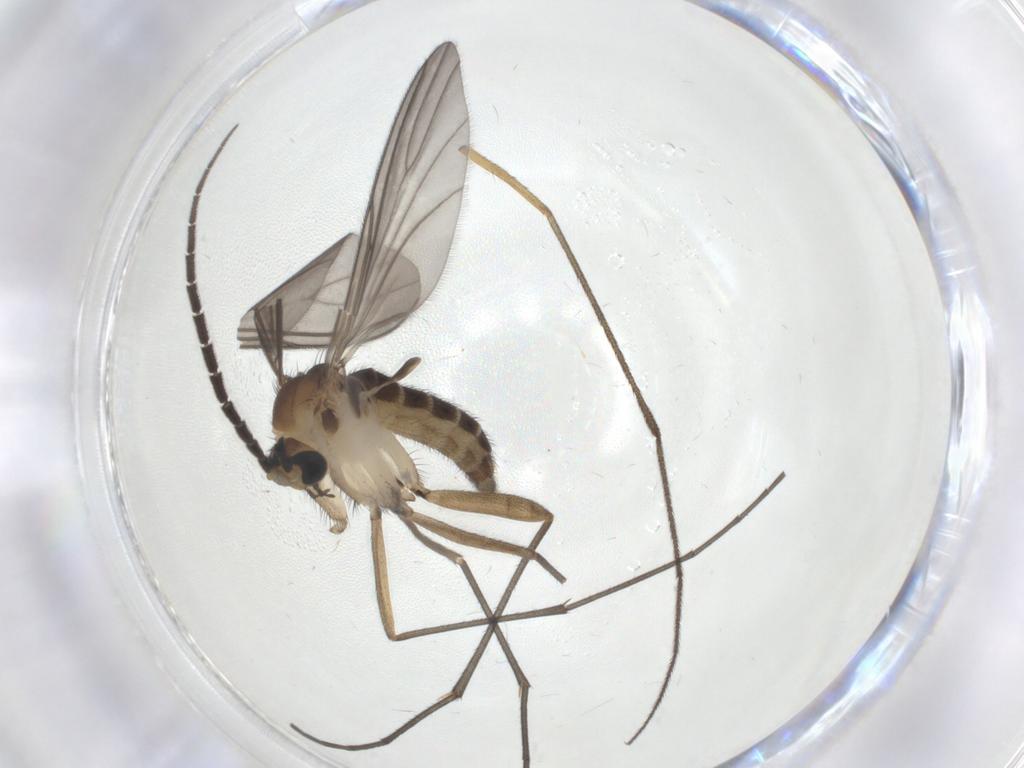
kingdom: Animalia
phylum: Arthropoda
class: Insecta
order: Diptera
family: Sciaridae
